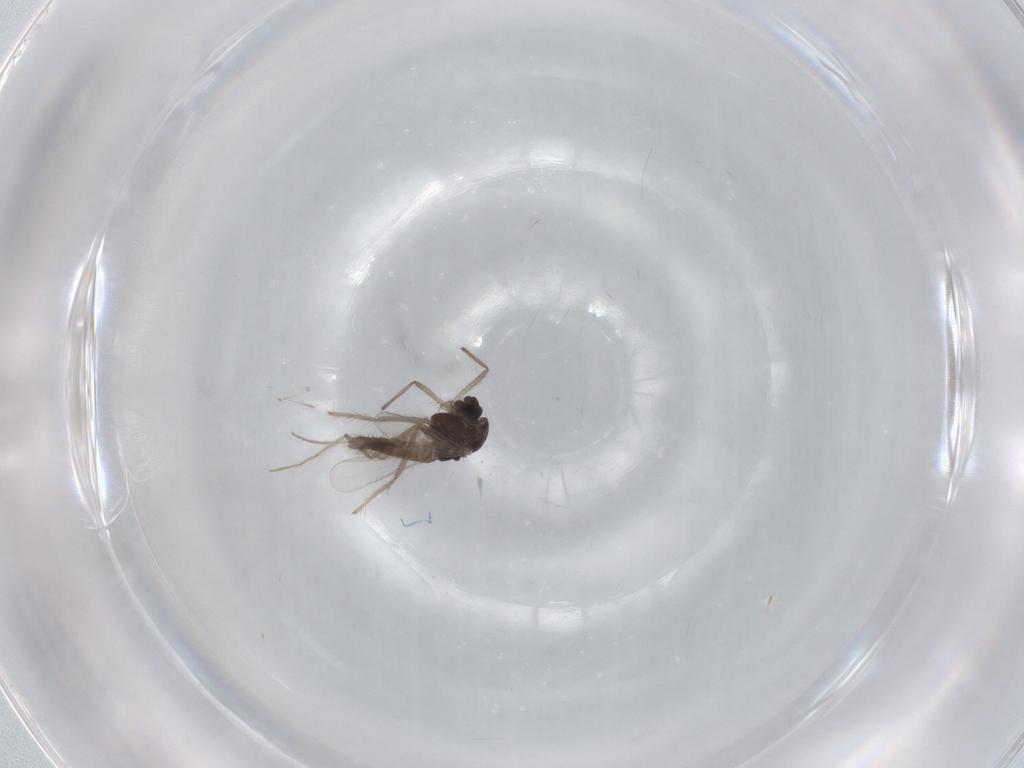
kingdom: Animalia
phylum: Arthropoda
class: Insecta
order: Diptera
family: Chironomidae
